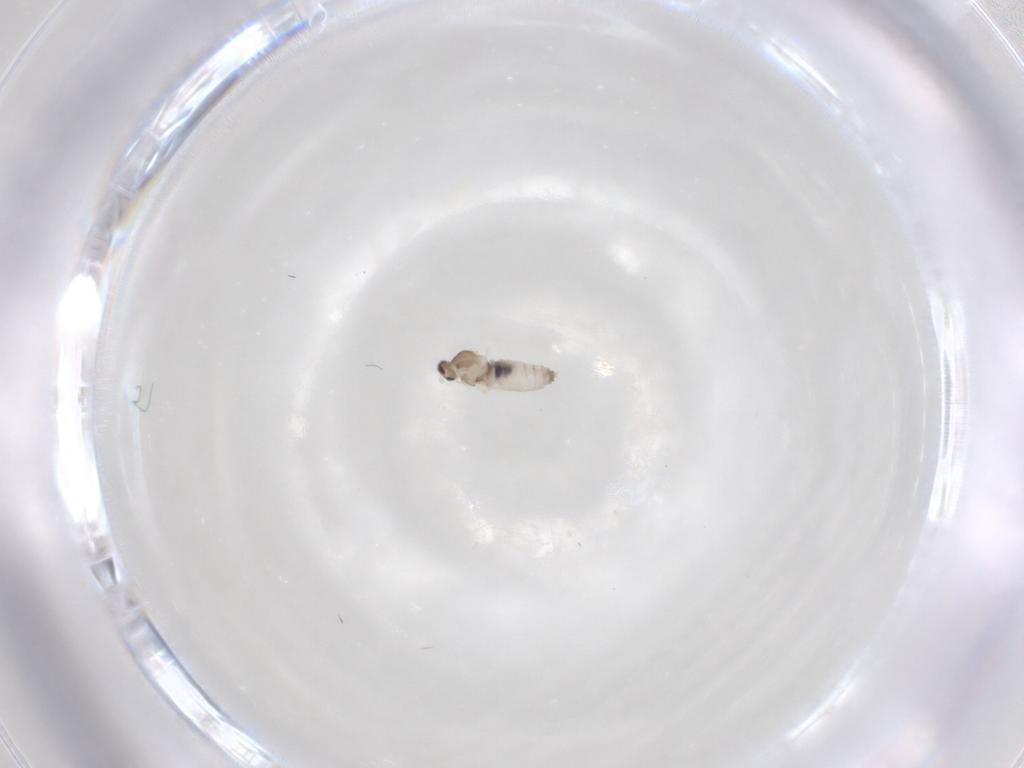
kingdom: Animalia
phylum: Arthropoda
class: Insecta
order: Diptera
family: Cecidomyiidae
